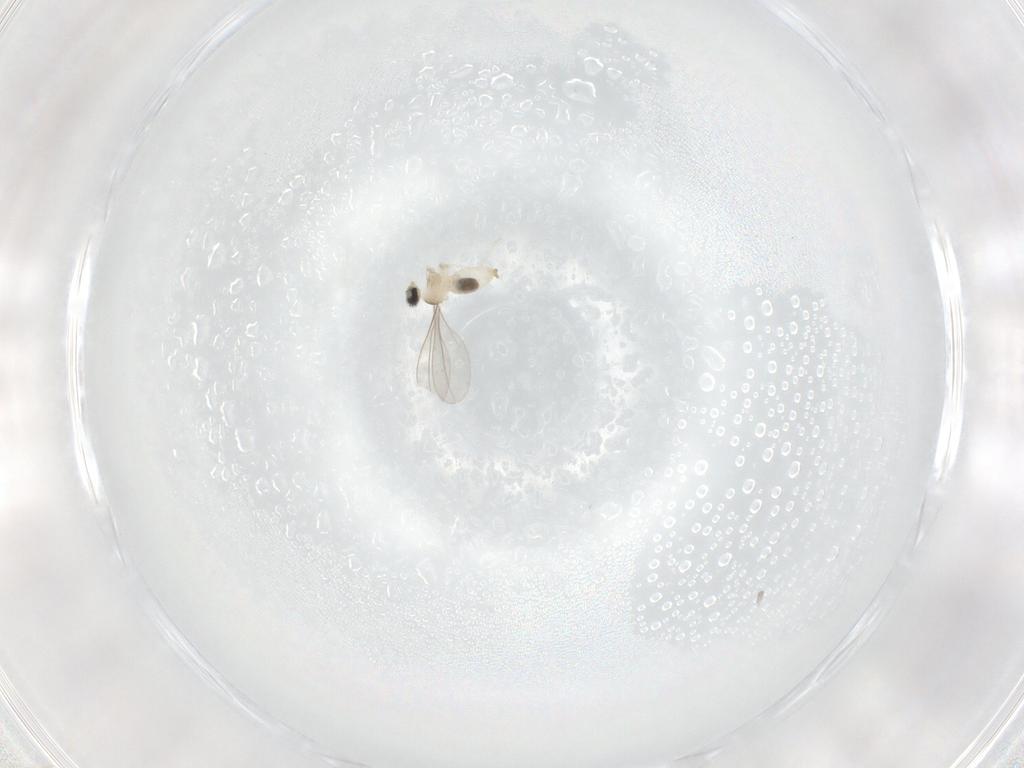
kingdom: Animalia
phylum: Arthropoda
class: Insecta
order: Diptera
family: Cecidomyiidae
